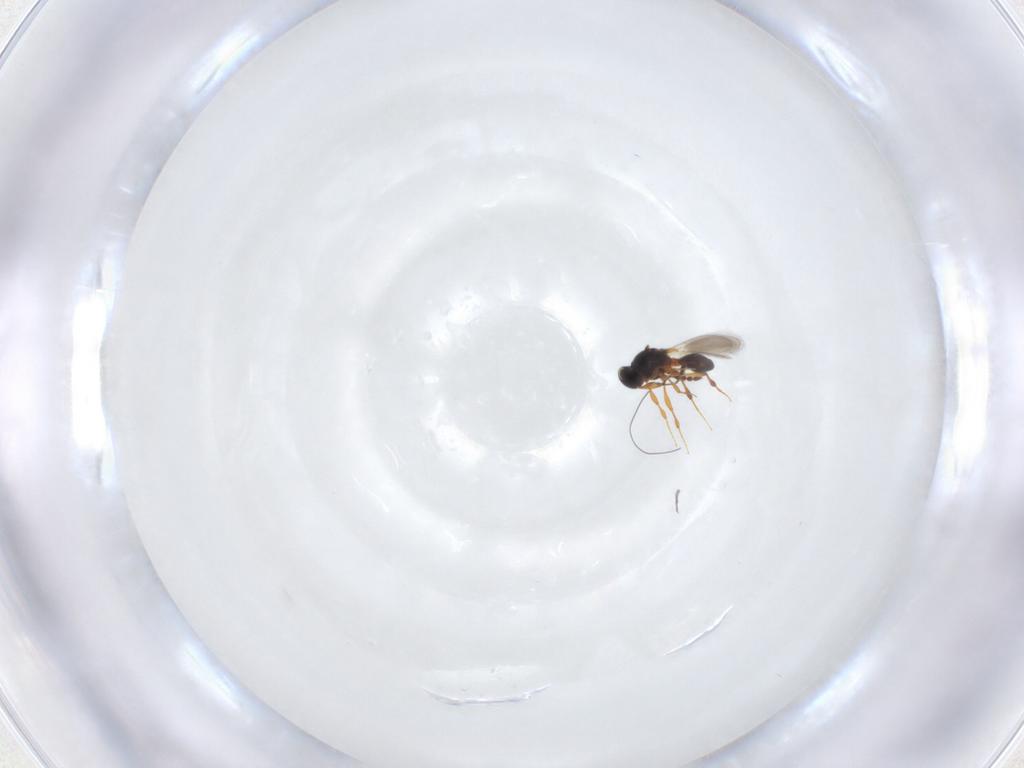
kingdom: Animalia
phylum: Arthropoda
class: Insecta
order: Hymenoptera
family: Platygastridae
